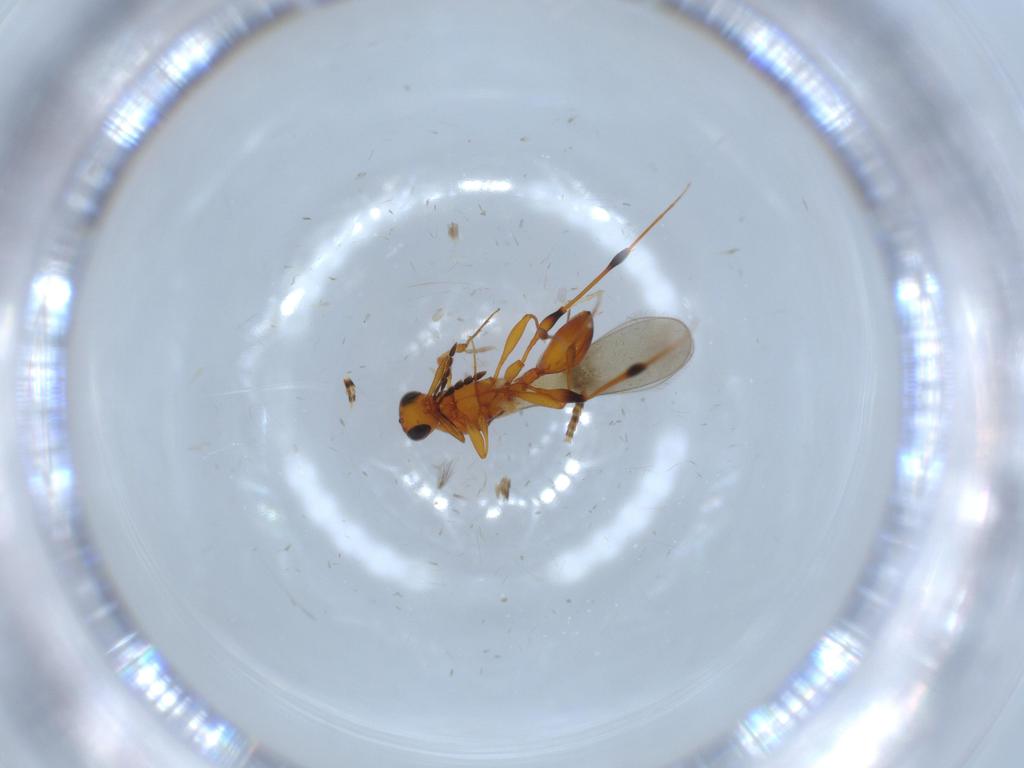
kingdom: Animalia
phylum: Arthropoda
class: Insecta
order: Hymenoptera
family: Platygastridae
